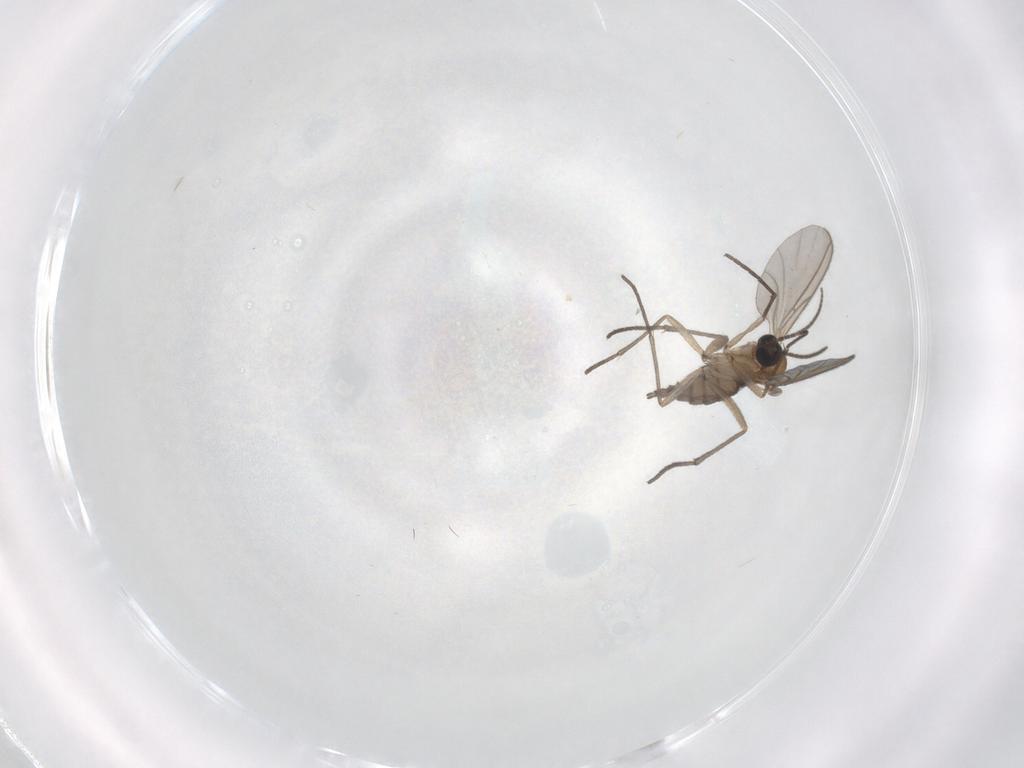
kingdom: Animalia
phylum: Arthropoda
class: Insecta
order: Diptera
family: Sciaridae
